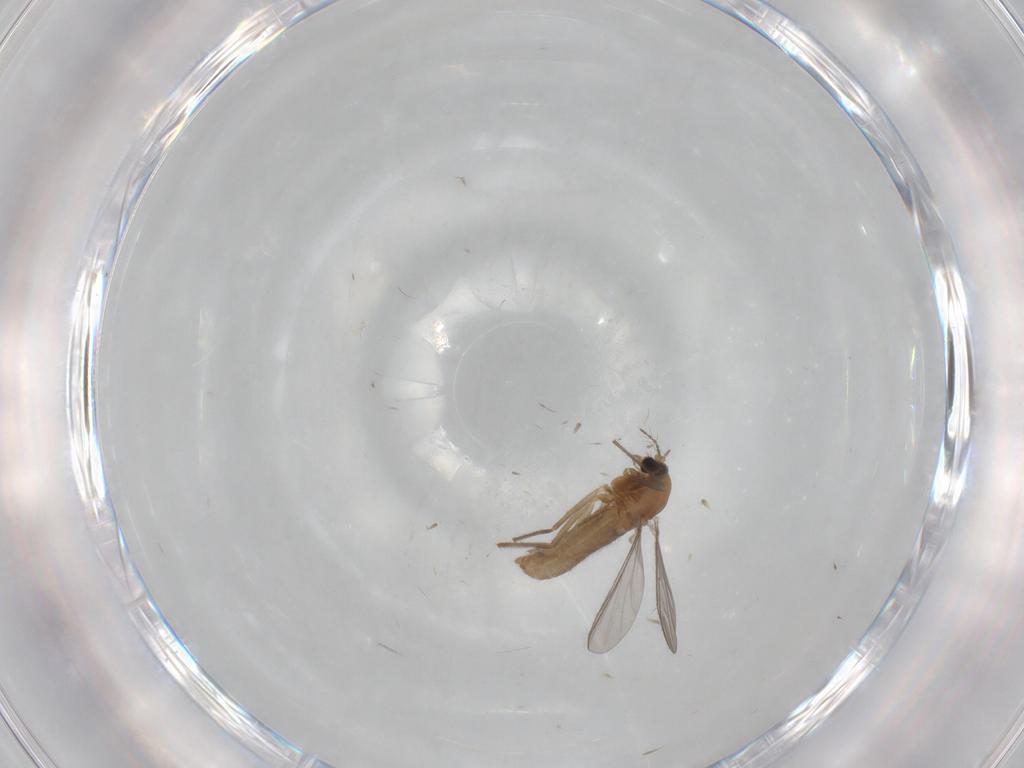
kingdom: Animalia
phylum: Arthropoda
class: Insecta
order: Diptera
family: Chironomidae
